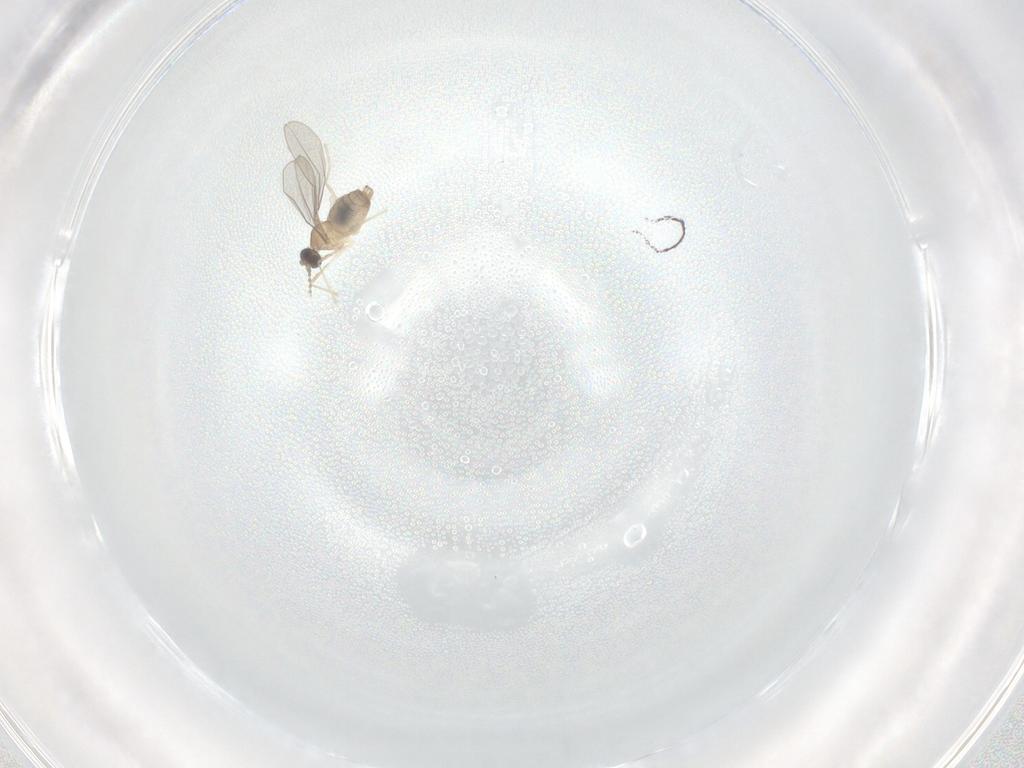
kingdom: Animalia
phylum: Arthropoda
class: Insecta
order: Diptera
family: Cecidomyiidae
